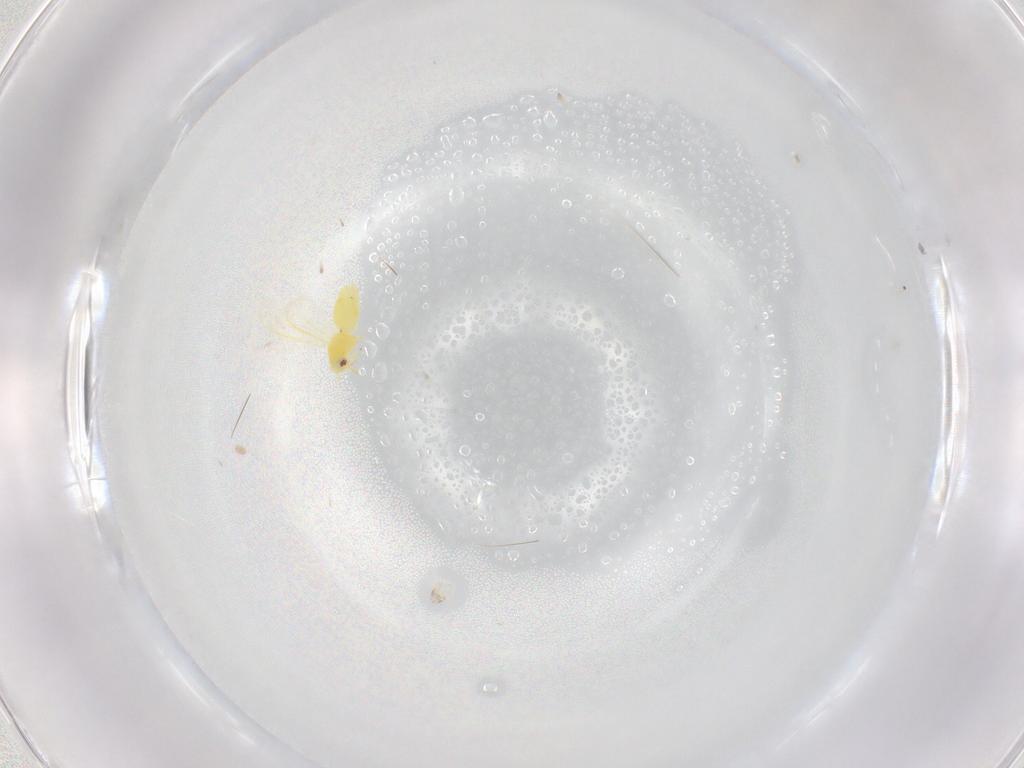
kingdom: Animalia
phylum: Arthropoda
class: Insecta
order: Hemiptera
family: Aleyrodidae
